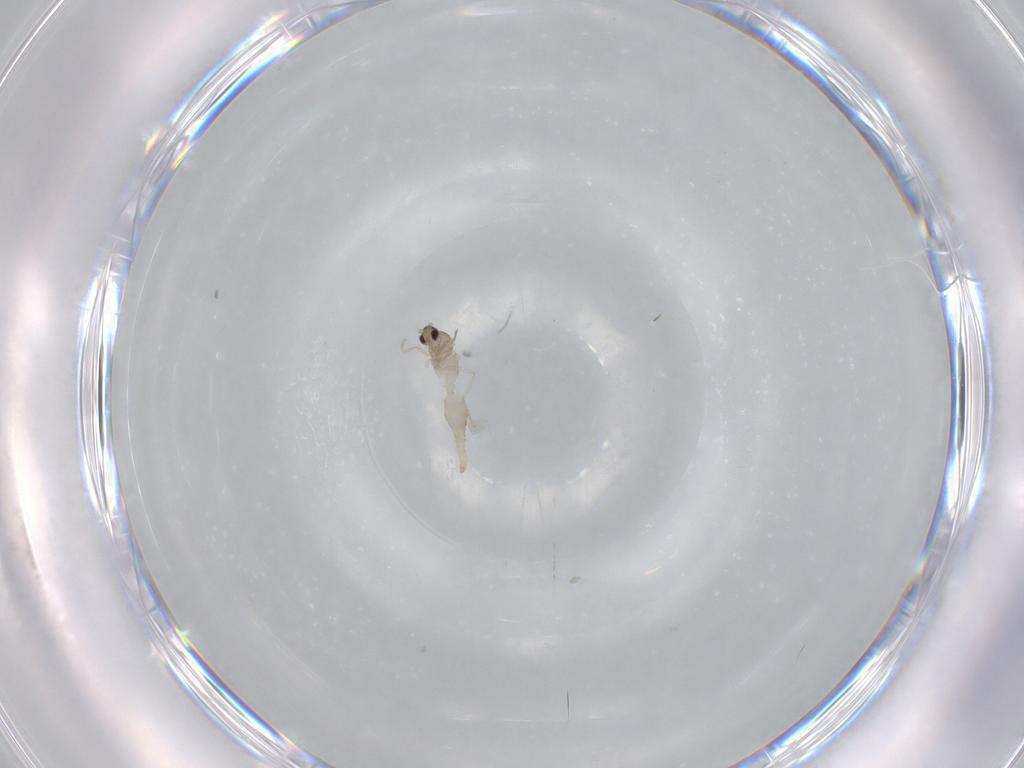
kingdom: Animalia
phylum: Arthropoda
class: Insecta
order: Diptera
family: Cecidomyiidae
